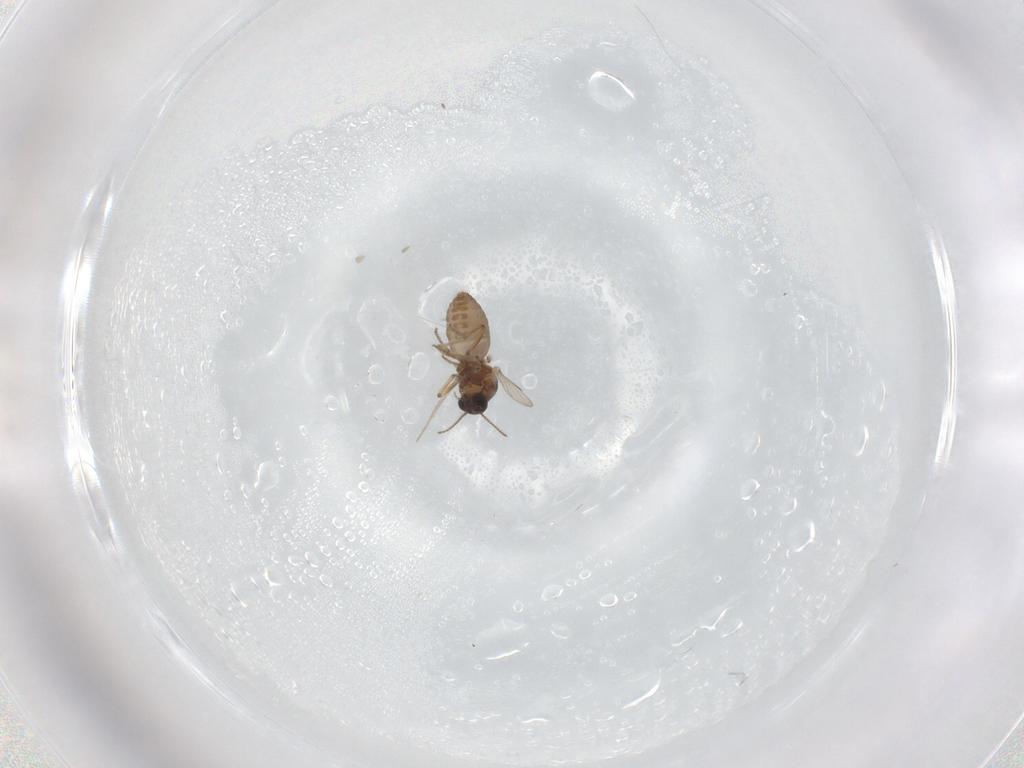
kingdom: Animalia
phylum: Arthropoda
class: Insecta
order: Diptera
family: Ceratopogonidae
